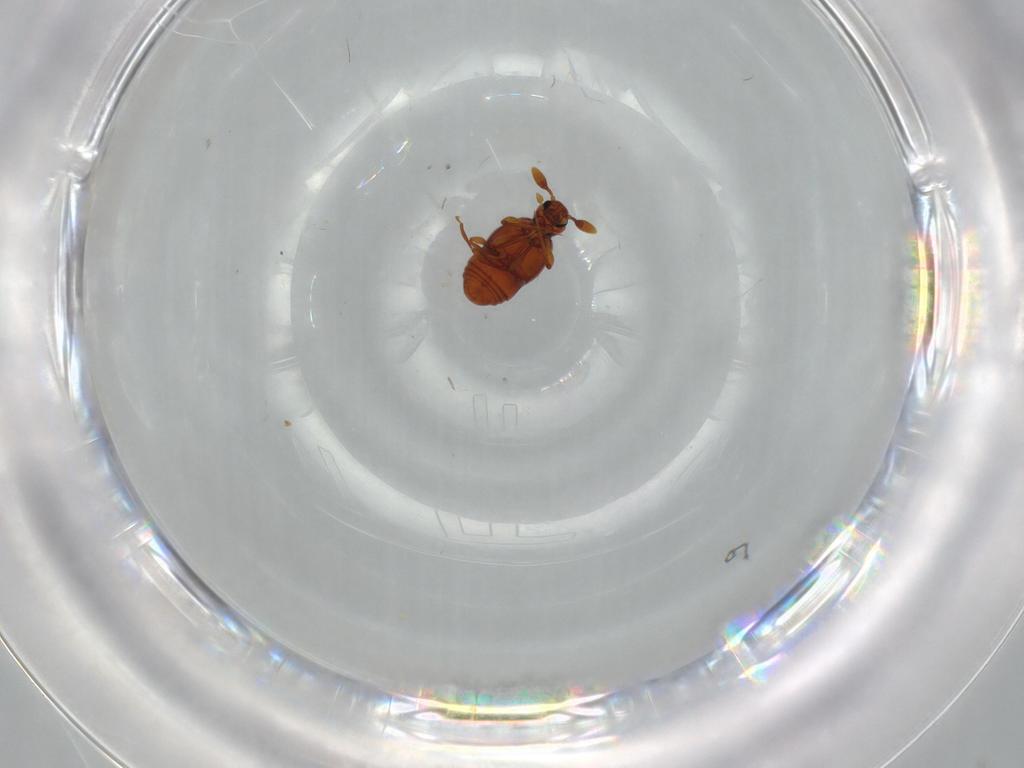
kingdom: Animalia
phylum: Arthropoda
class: Insecta
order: Coleoptera
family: Staphylinidae
